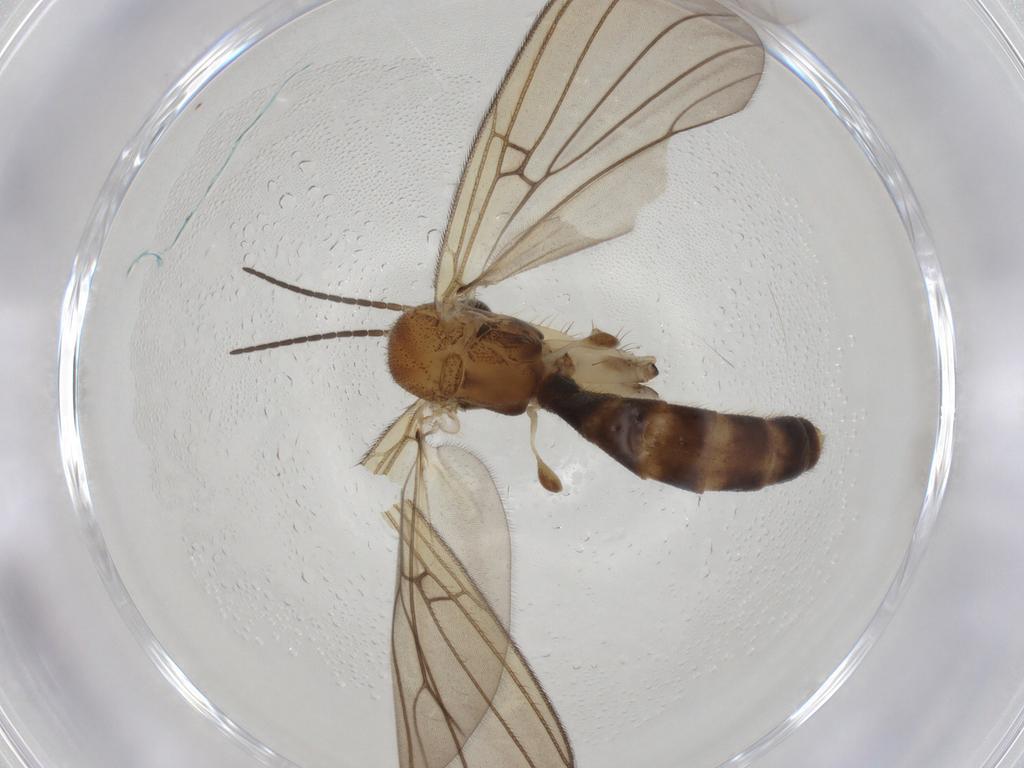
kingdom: Animalia
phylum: Arthropoda
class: Insecta
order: Diptera
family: Mycetophilidae
